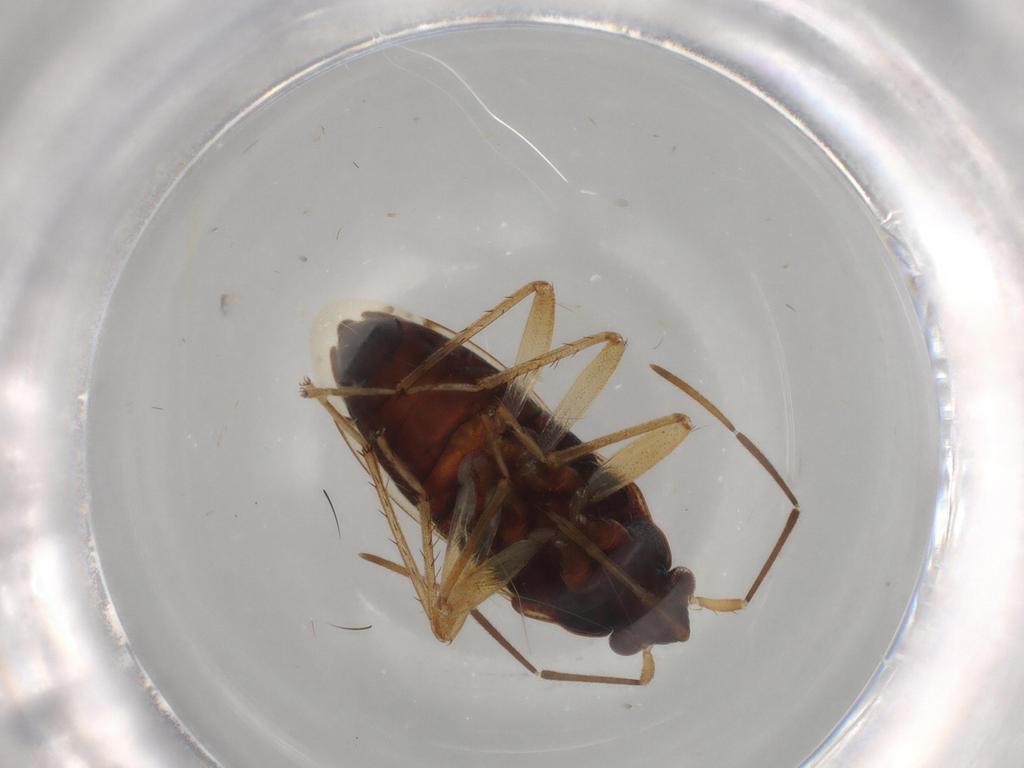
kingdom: Animalia
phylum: Arthropoda
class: Insecta
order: Hemiptera
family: Rhyparochromidae
